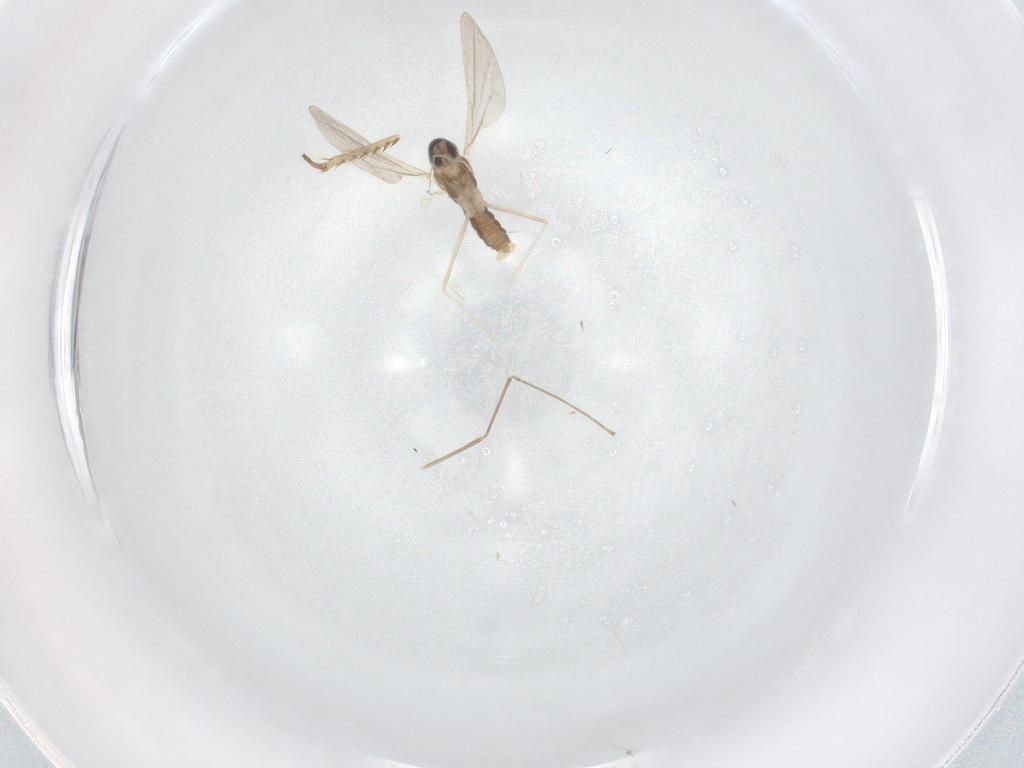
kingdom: Animalia
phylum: Arthropoda
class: Insecta
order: Diptera
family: Cecidomyiidae
